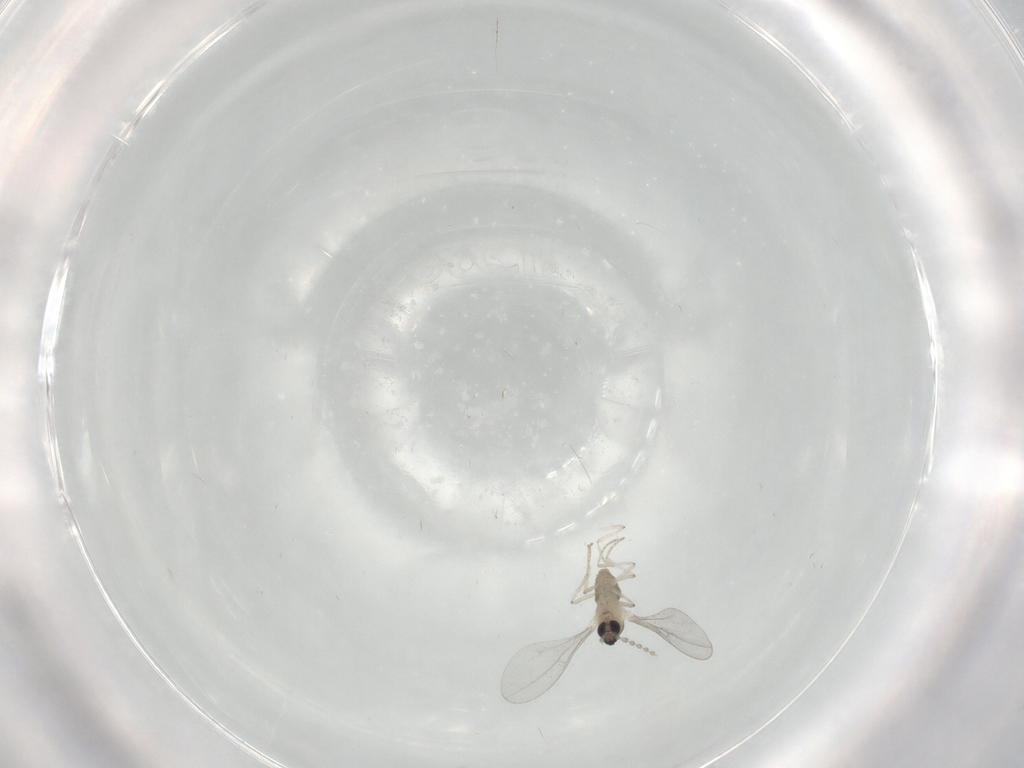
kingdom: Animalia
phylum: Arthropoda
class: Insecta
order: Diptera
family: Cecidomyiidae
